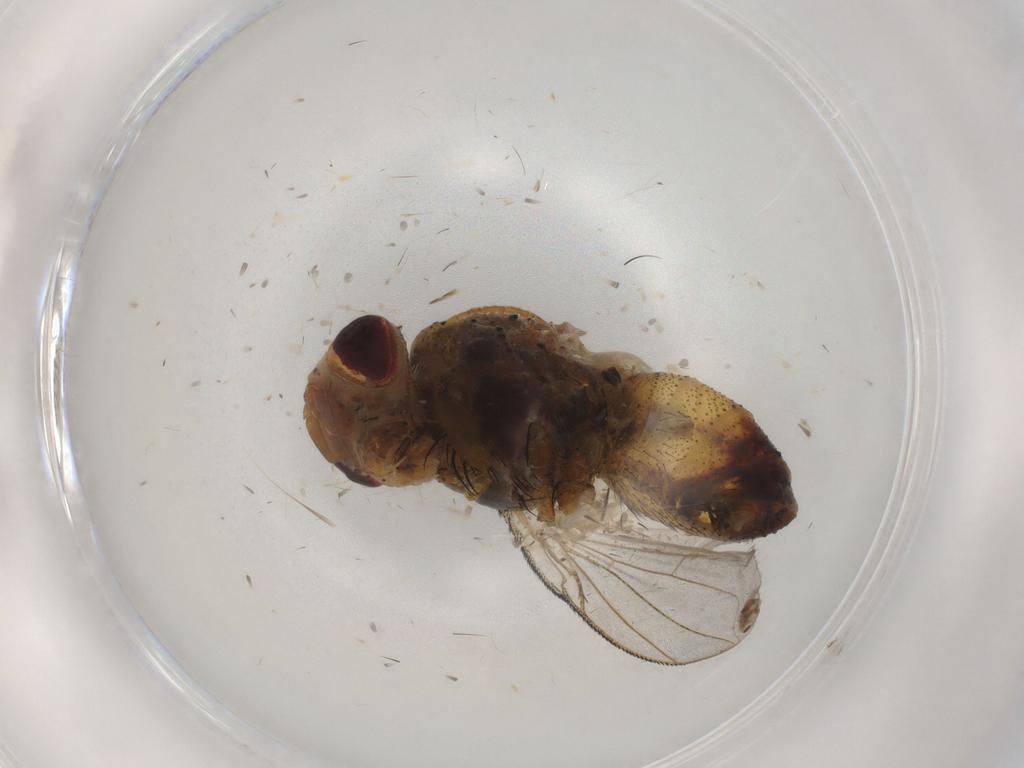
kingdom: Animalia
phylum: Arthropoda
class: Insecta
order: Diptera
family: Tachinidae
